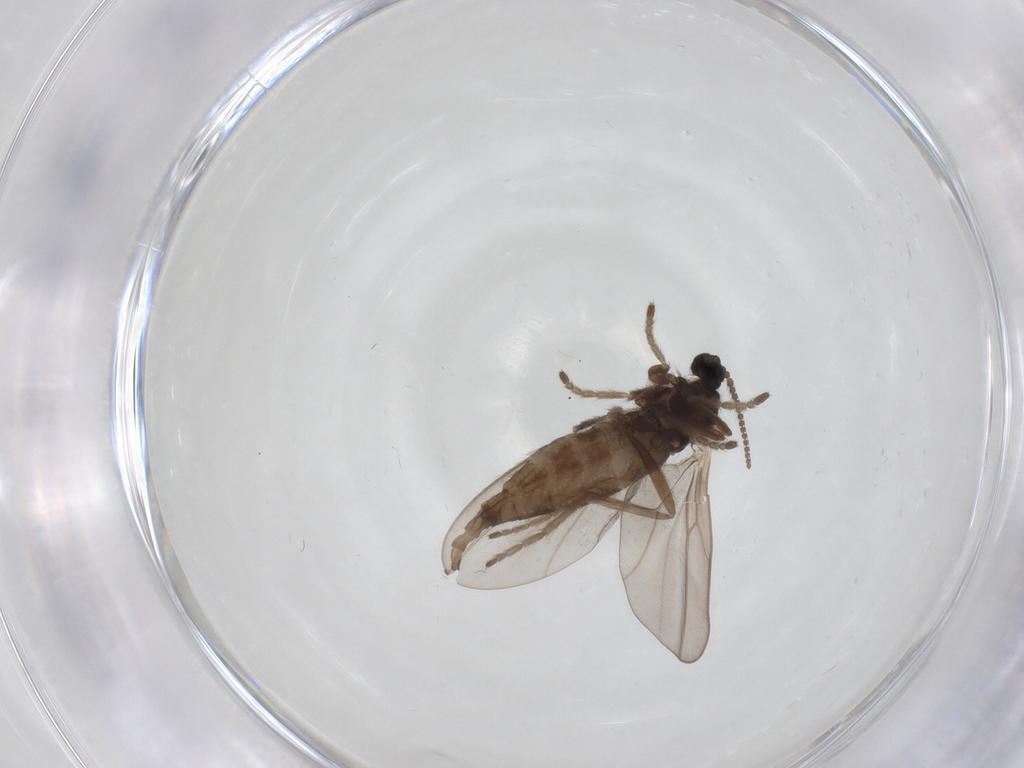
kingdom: Animalia
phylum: Arthropoda
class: Insecta
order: Diptera
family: Cecidomyiidae
